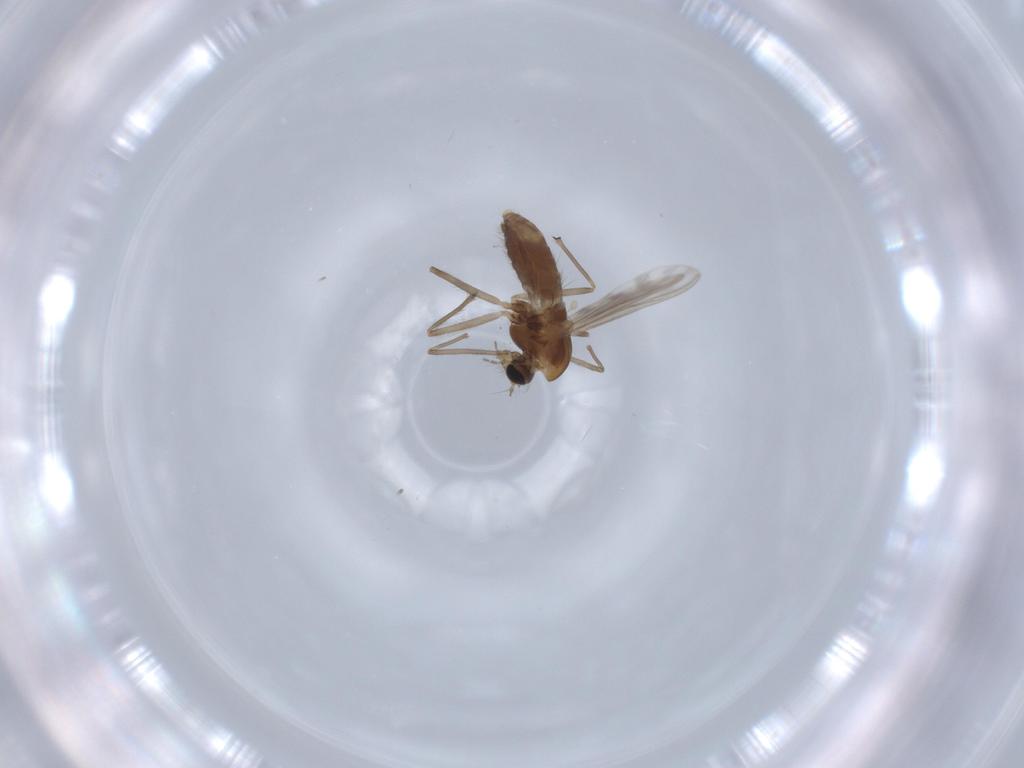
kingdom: Animalia
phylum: Arthropoda
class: Insecta
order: Diptera
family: Chironomidae
